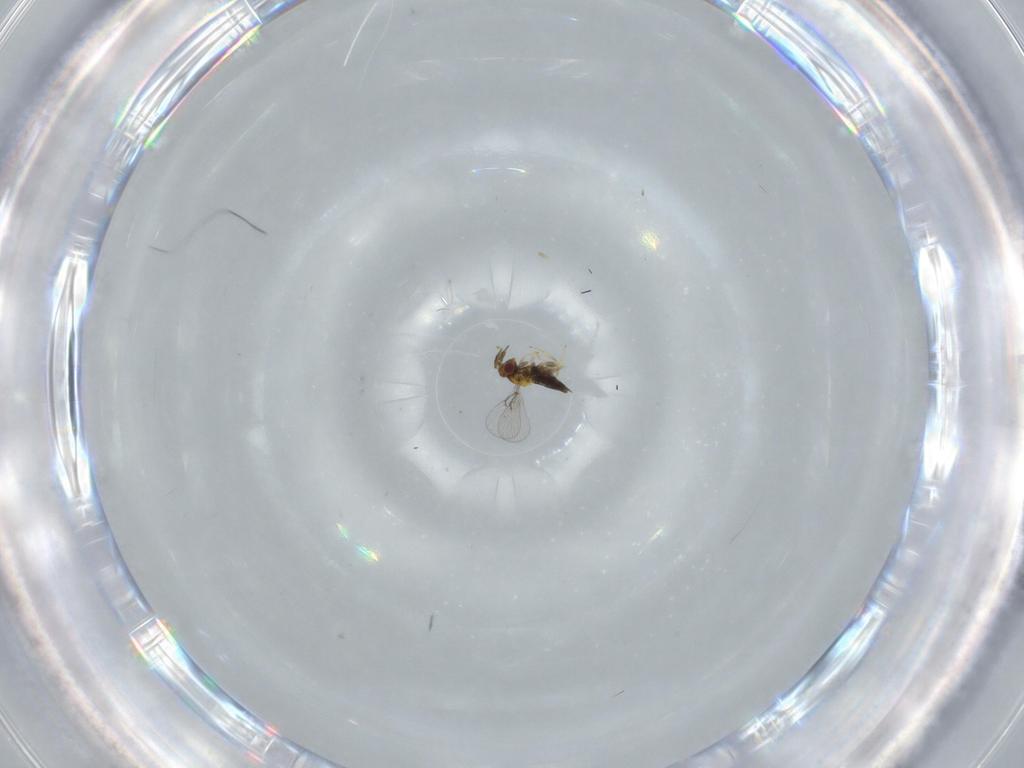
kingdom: Animalia
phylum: Arthropoda
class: Insecta
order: Hymenoptera
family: Trichogrammatidae
